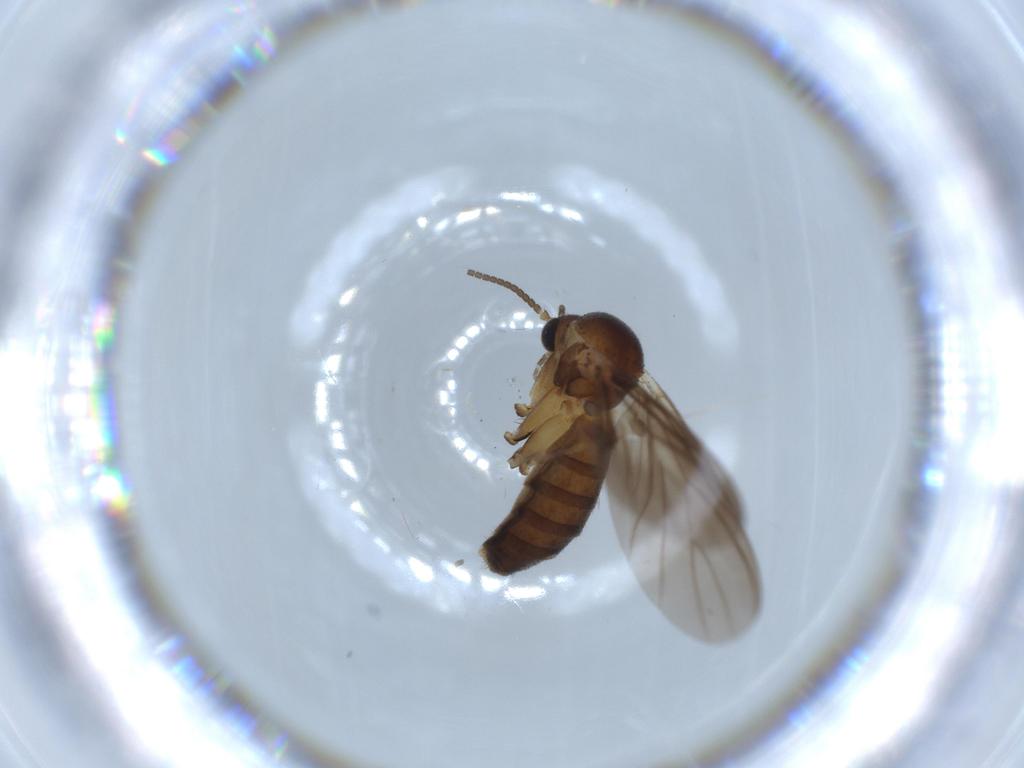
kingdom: Animalia
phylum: Arthropoda
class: Insecta
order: Diptera
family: Mycetophilidae
